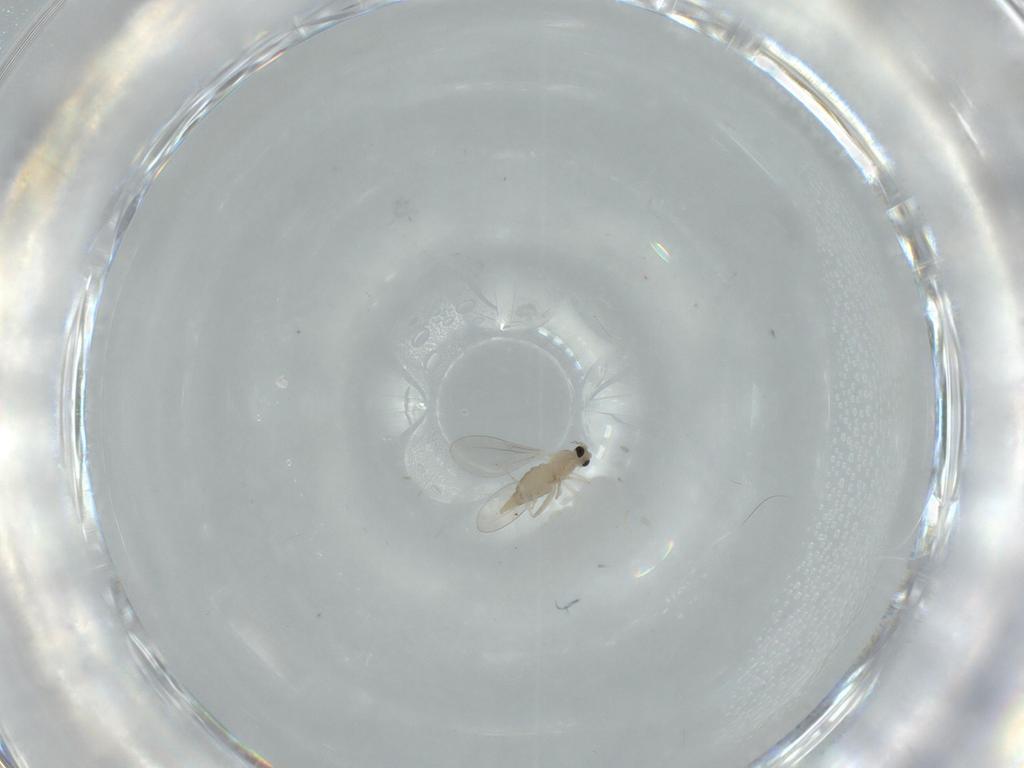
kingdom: Animalia
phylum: Arthropoda
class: Insecta
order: Diptera
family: Cecidomyiidae
